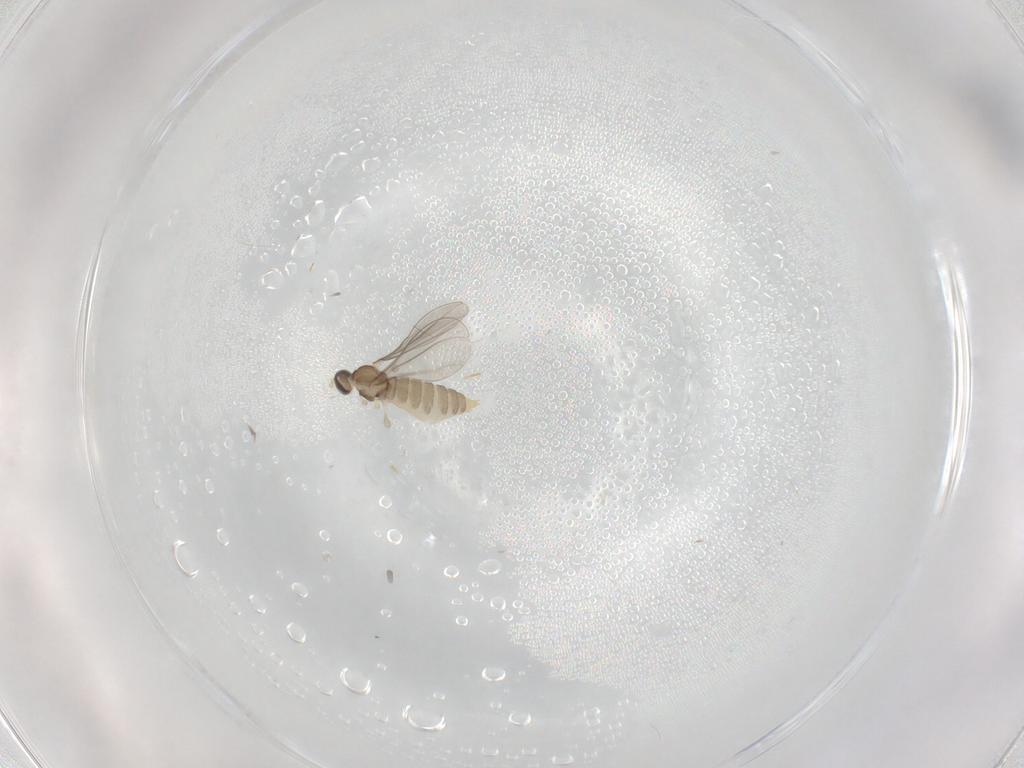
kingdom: Animalia
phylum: Arthropoda
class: Insecta
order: Diptera
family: Cecidomyiidae
